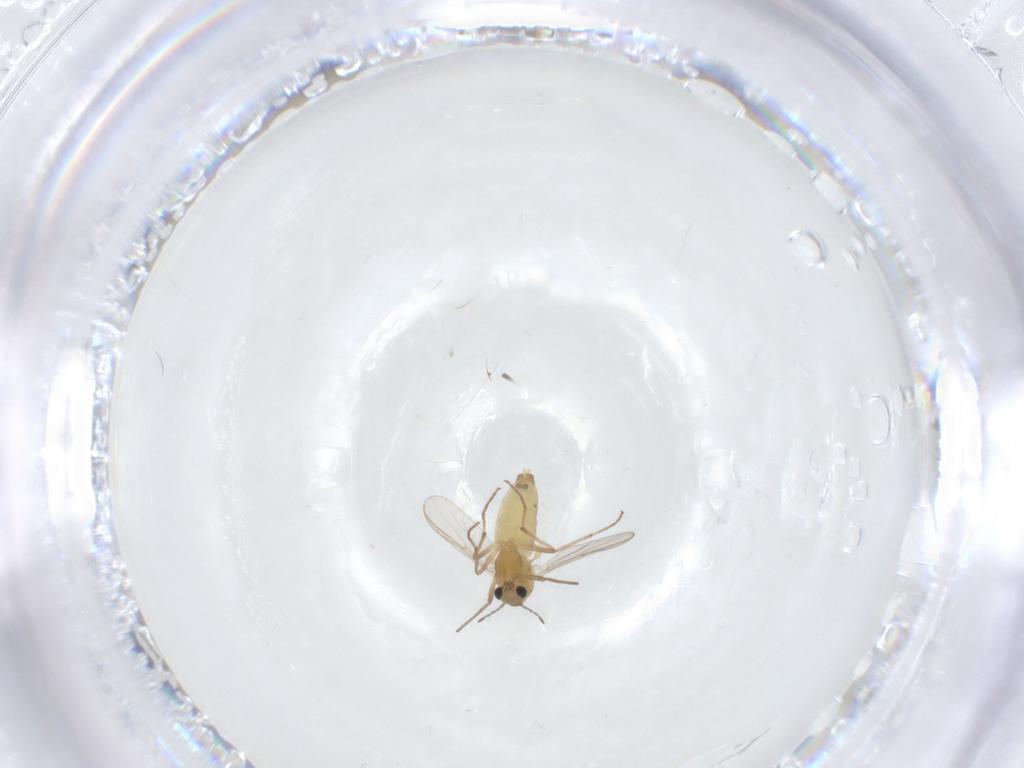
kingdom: Animalia
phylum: Arthropoda
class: Insecta
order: Diptera
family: Chironomidae
